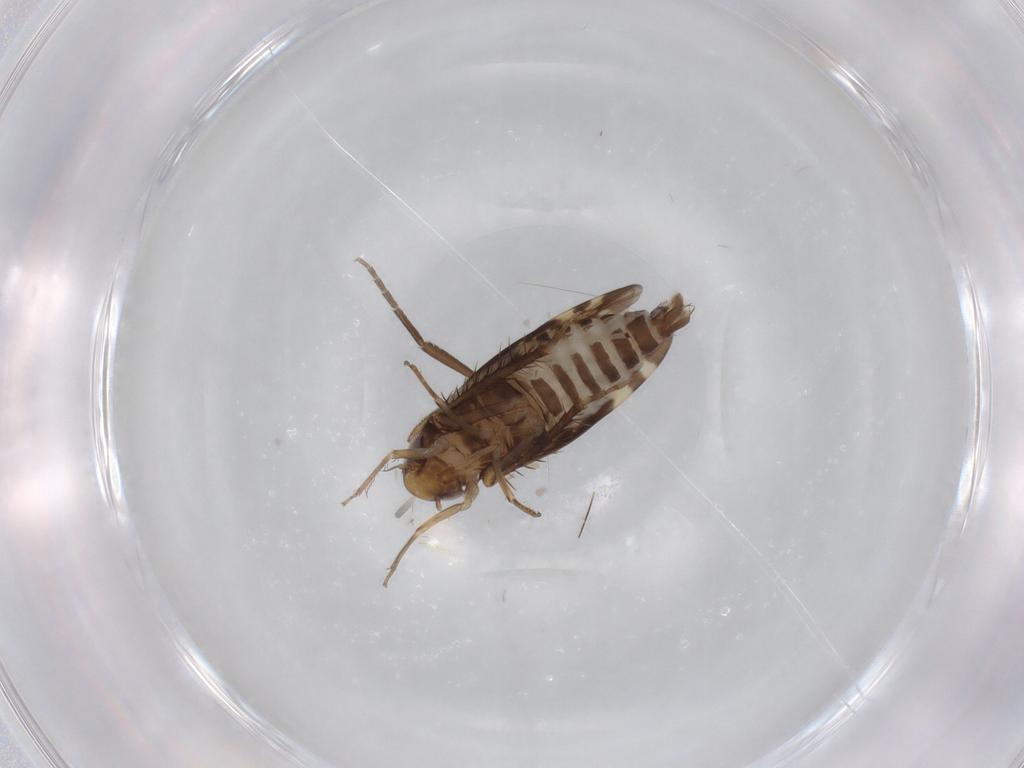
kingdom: Animalia
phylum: Arthropoda
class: Insecta
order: Hemiptera
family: Cicadellidae
